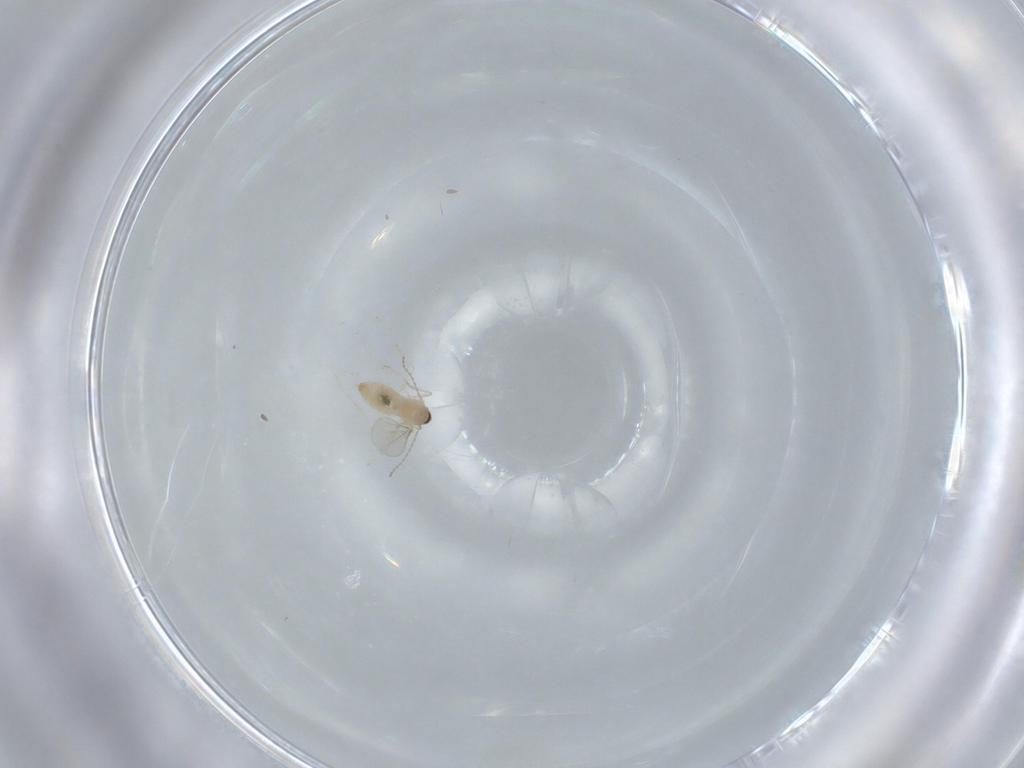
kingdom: Animalia
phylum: Arthropoda
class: Insecta
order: Diptera
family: Cecidomyiidae
